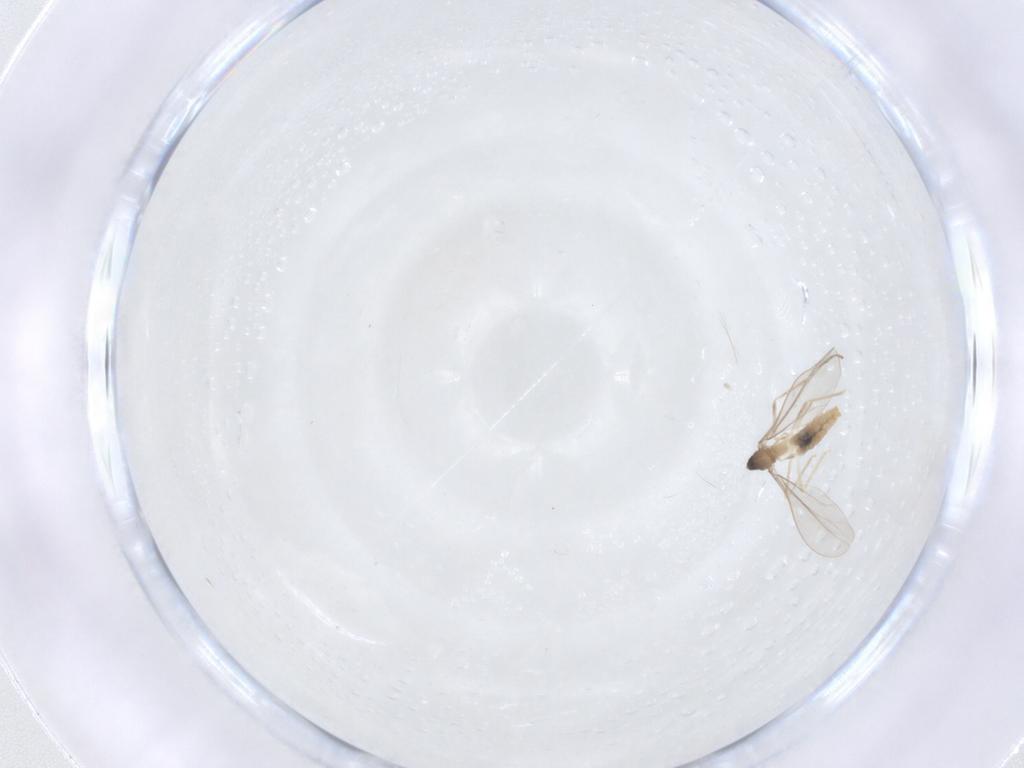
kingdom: Animalia
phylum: Arthropoda
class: Insecta
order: Diptera
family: Cecidomyiidae
